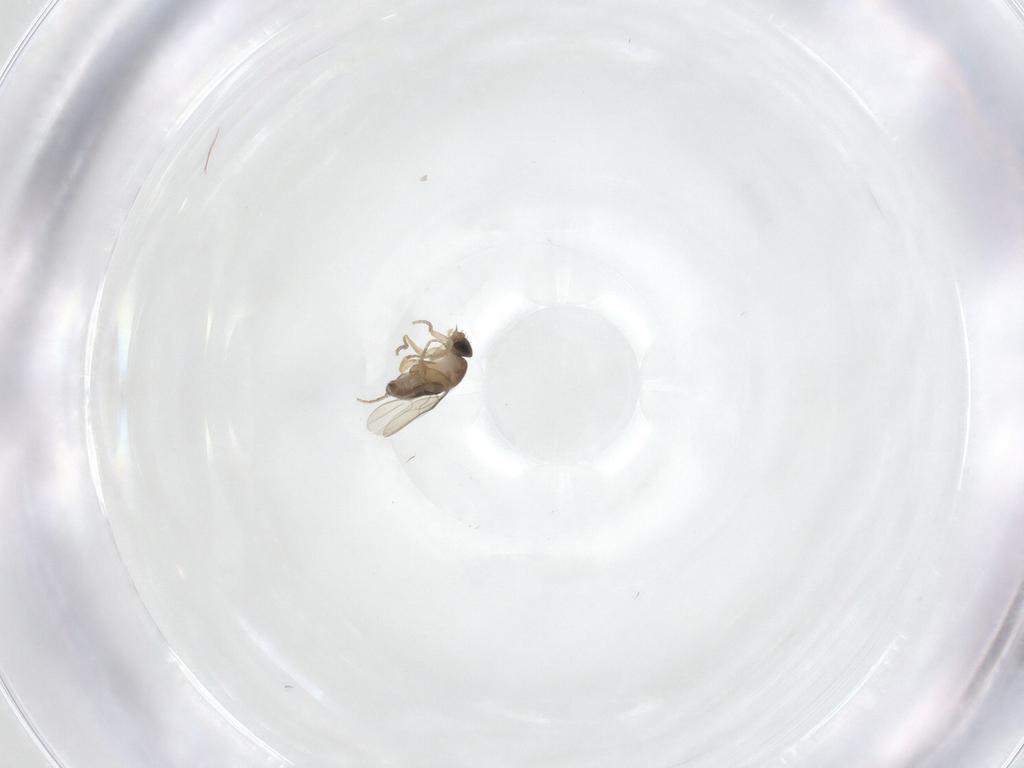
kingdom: Animalia
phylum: Arthropoda
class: Insecta
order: Diptera
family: Phoridae
